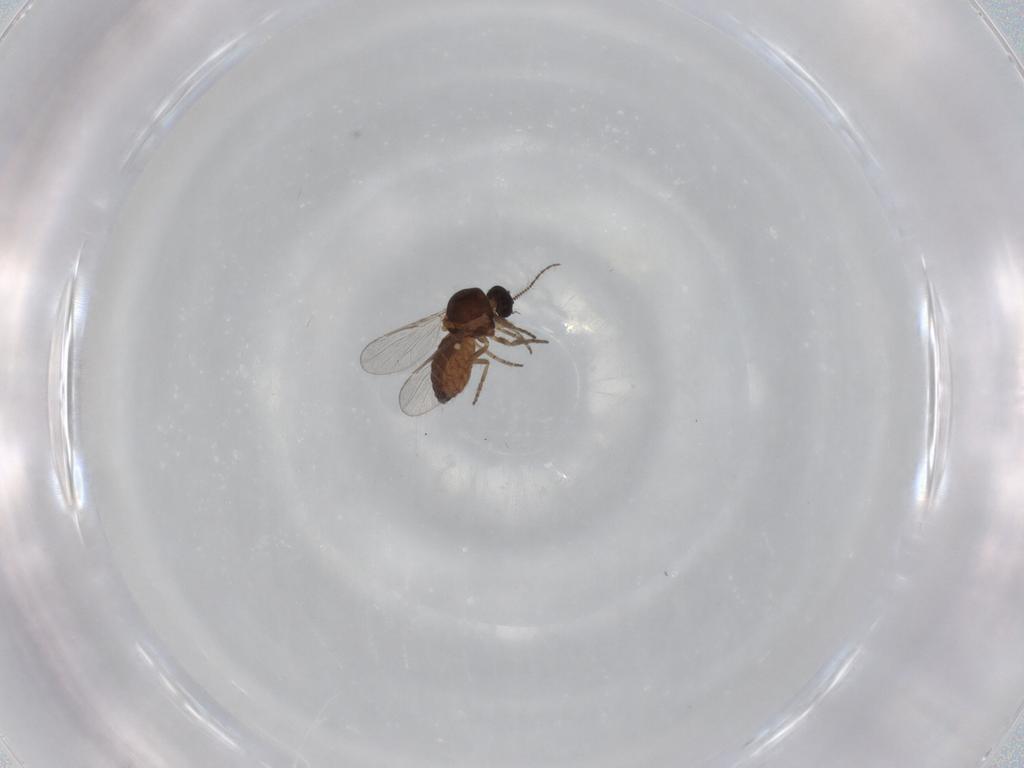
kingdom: Animalia
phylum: Arthropoda
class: Insecta
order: Diptera
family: Ceratopogonidae
